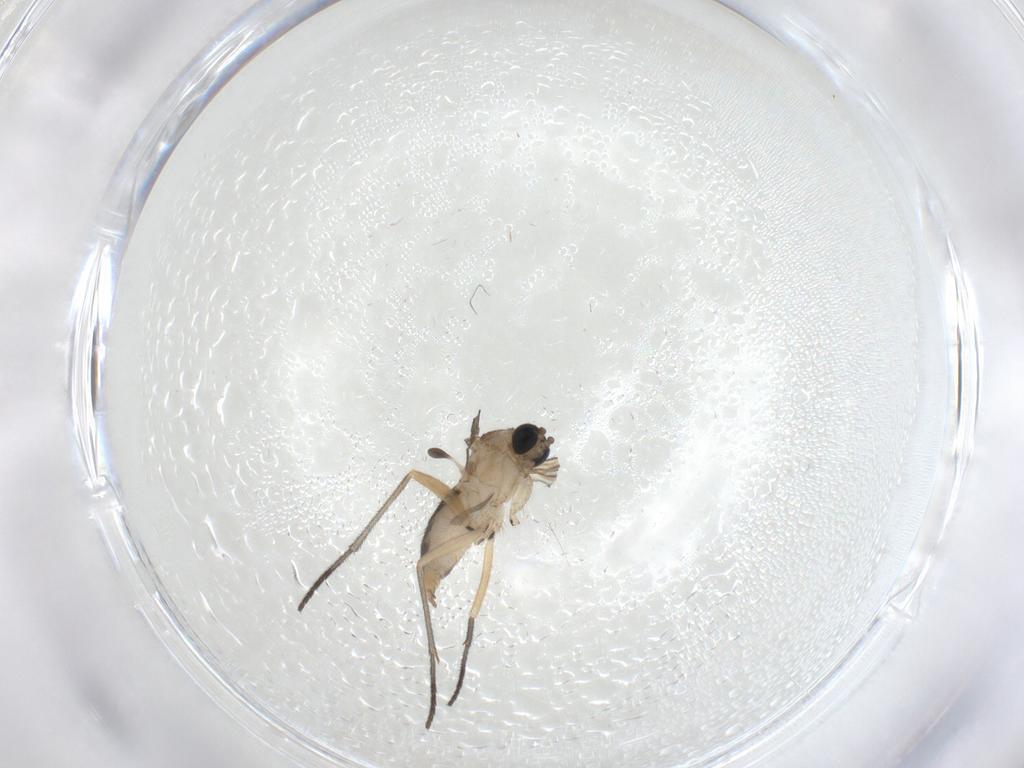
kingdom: Animalia
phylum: Arthropoda
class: Insecta
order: Diptera
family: Sciaridae
